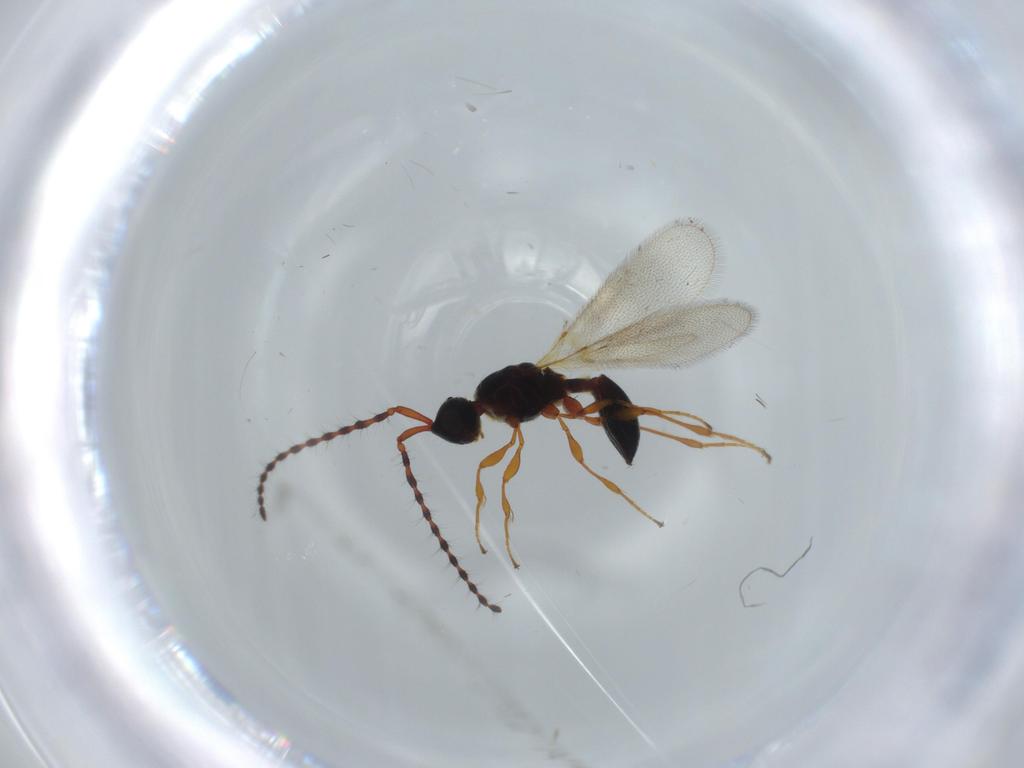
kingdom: Animalia
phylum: Arthropoda
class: Insecta
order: Hymenoptera
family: Diapriidae
